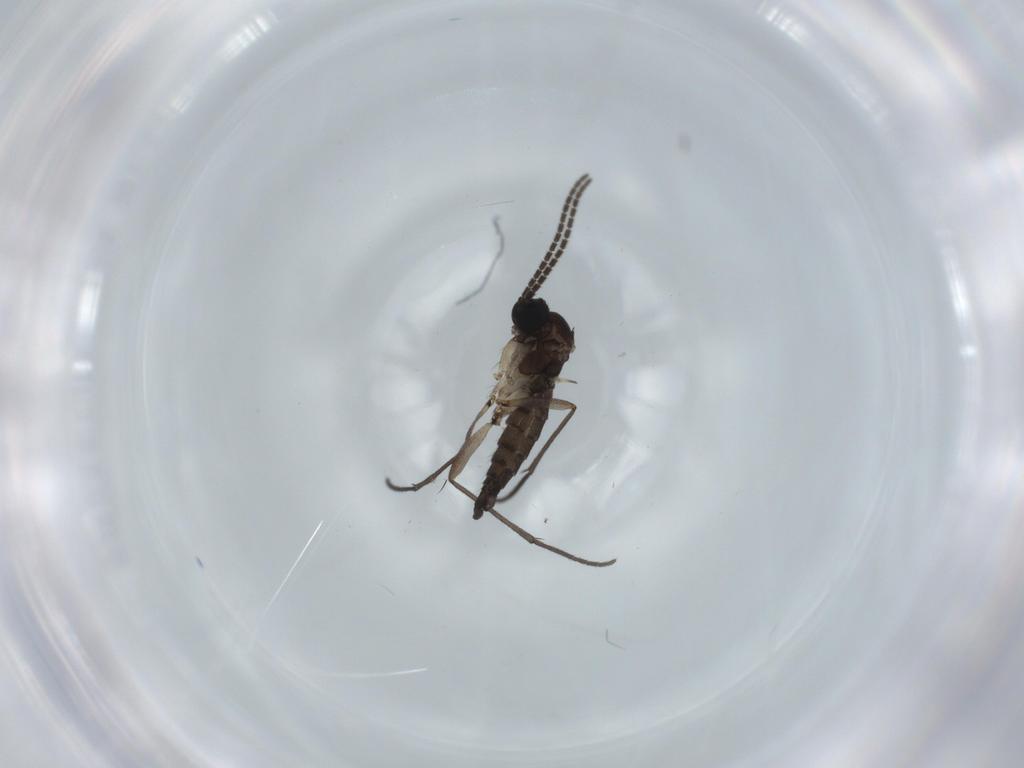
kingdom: Animalia
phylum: Arthropoda
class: Insecta
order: Diptera
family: Sciaridae
